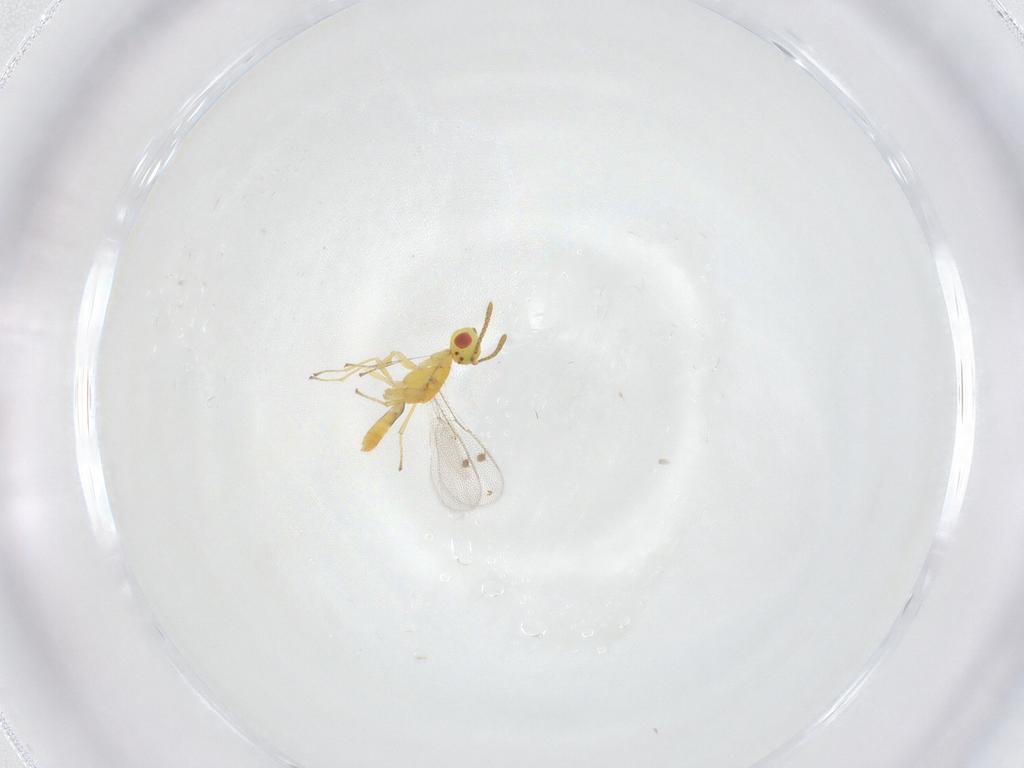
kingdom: Animalia
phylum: Arthropoda
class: Insecta
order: Hymenoptera
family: Megastigmidae
